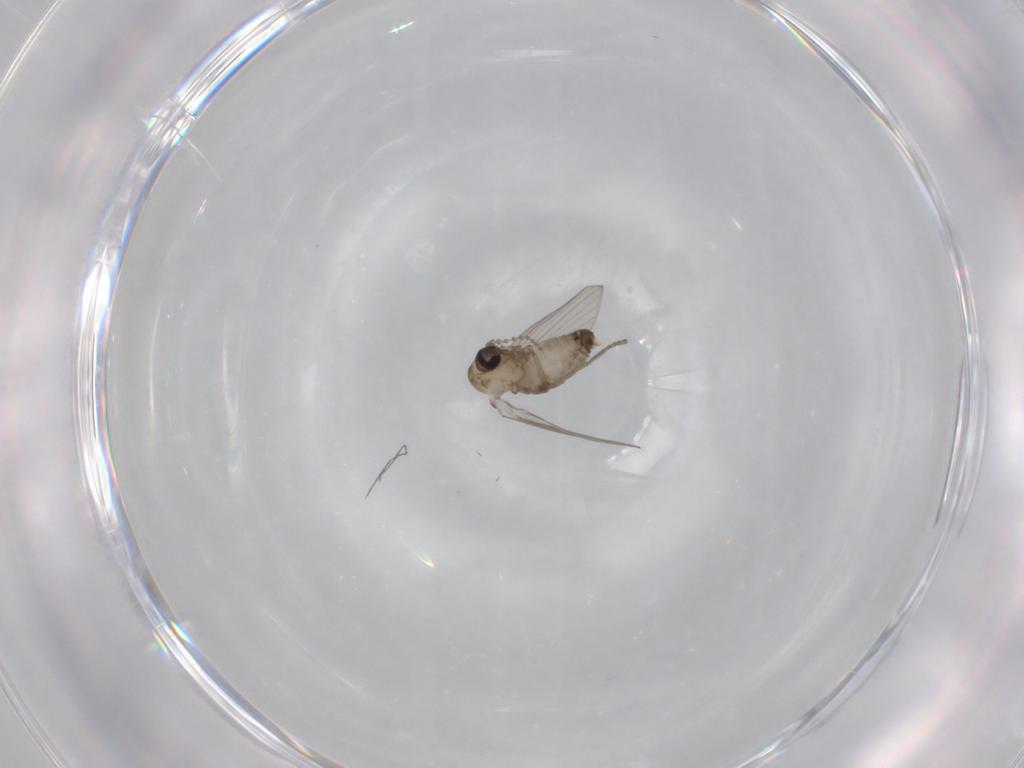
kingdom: Animalia
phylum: Arthropoda
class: Insecta
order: Diptera
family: Psychodidae
